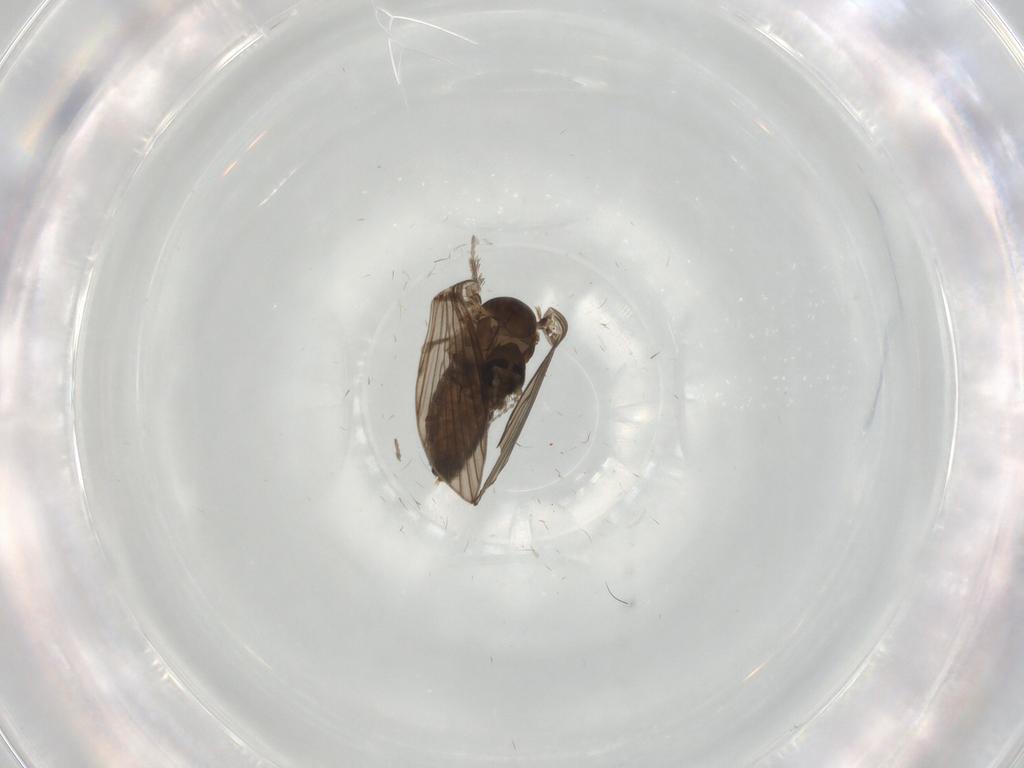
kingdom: Animalia
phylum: Arthropoda
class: Insecta
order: Diptera
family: Psychodidae
